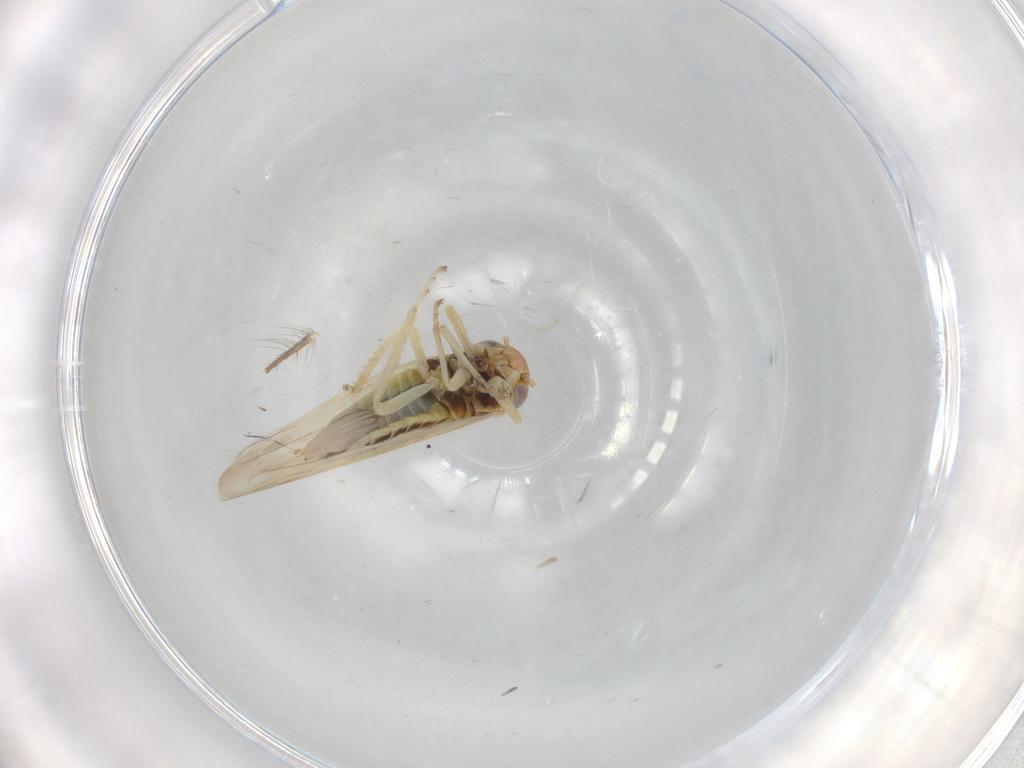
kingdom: Animalia
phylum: Arthropoda
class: Insecta
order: Hemiptera
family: Cicadellidae
